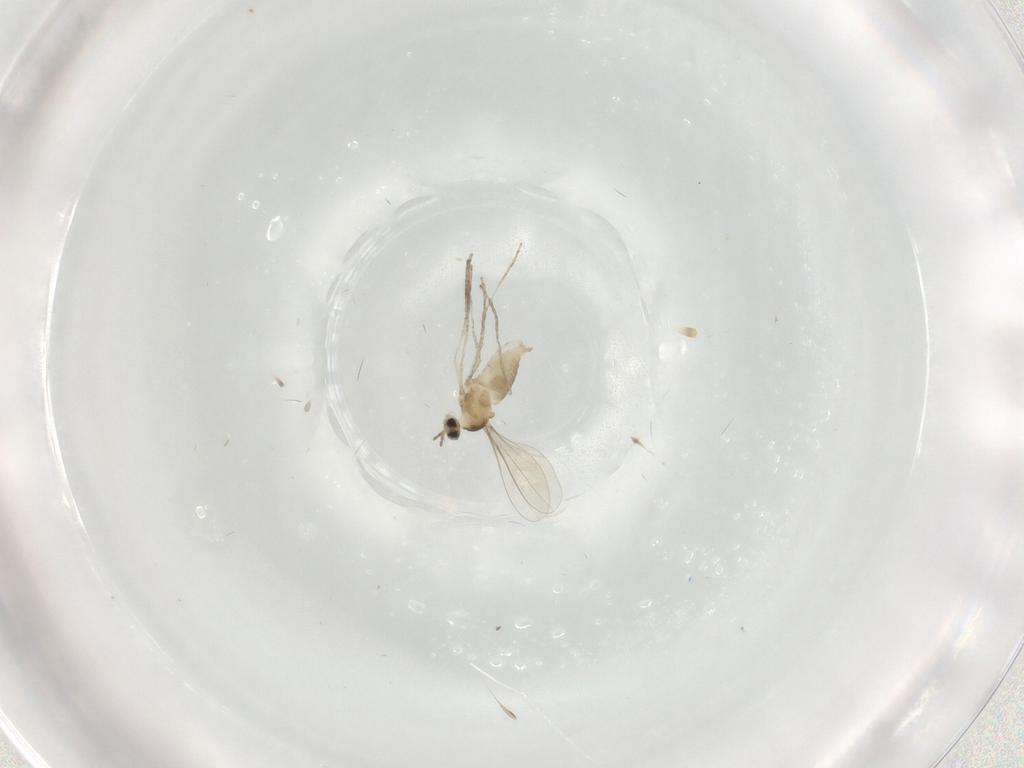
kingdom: Animalia
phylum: Arthropoda
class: Insecta
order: Diptera
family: Cecidomyiidae
